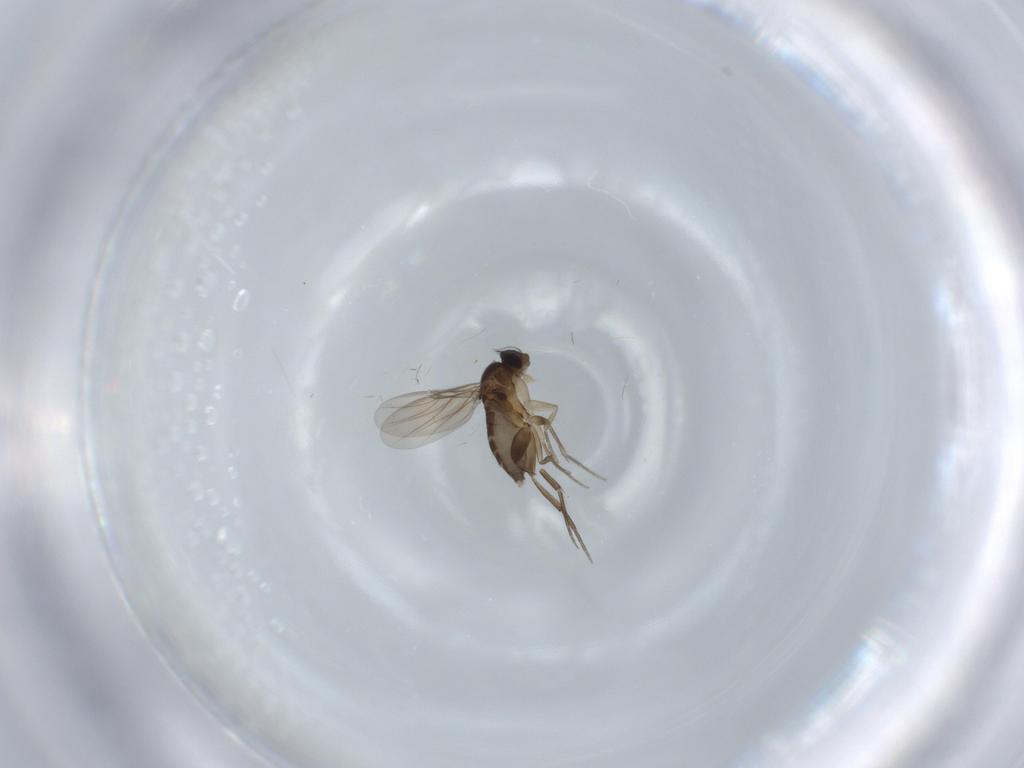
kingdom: Animalia
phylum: Arthropoda
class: Insecta
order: Diptera
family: Phoridae
